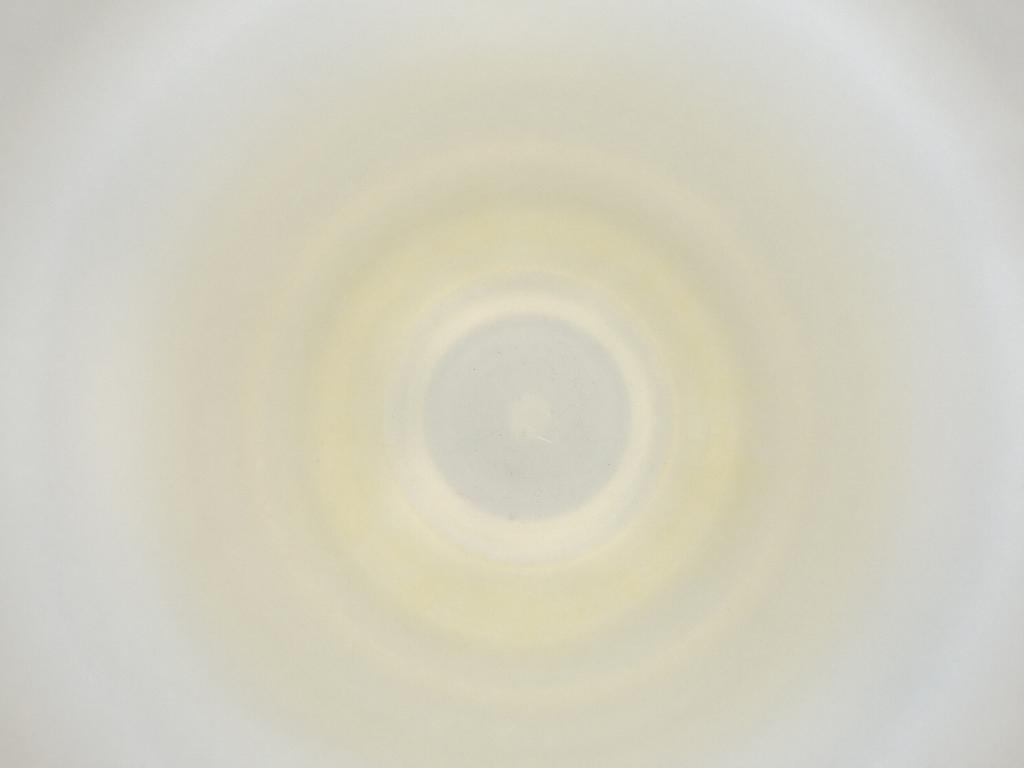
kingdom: Animalia
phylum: Arthropoda
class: Insecta
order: Diptera
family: Cecidomyiidae
